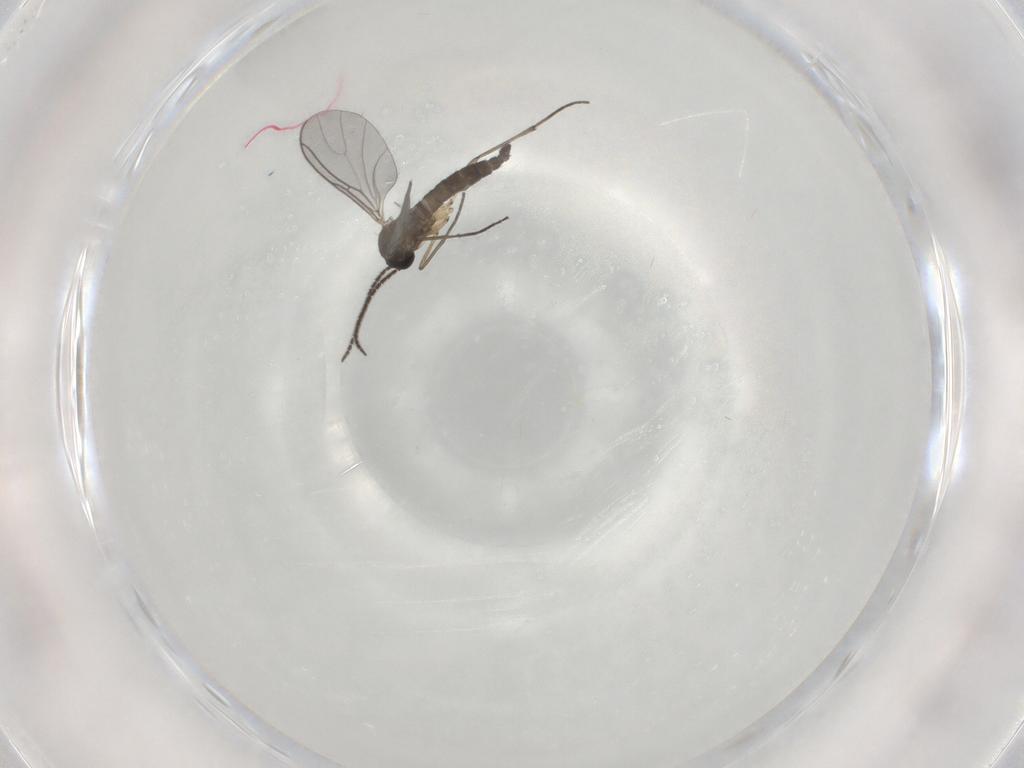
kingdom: Animalia
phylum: Arthropoda
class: Insecta
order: Diptera
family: Sciaridae
